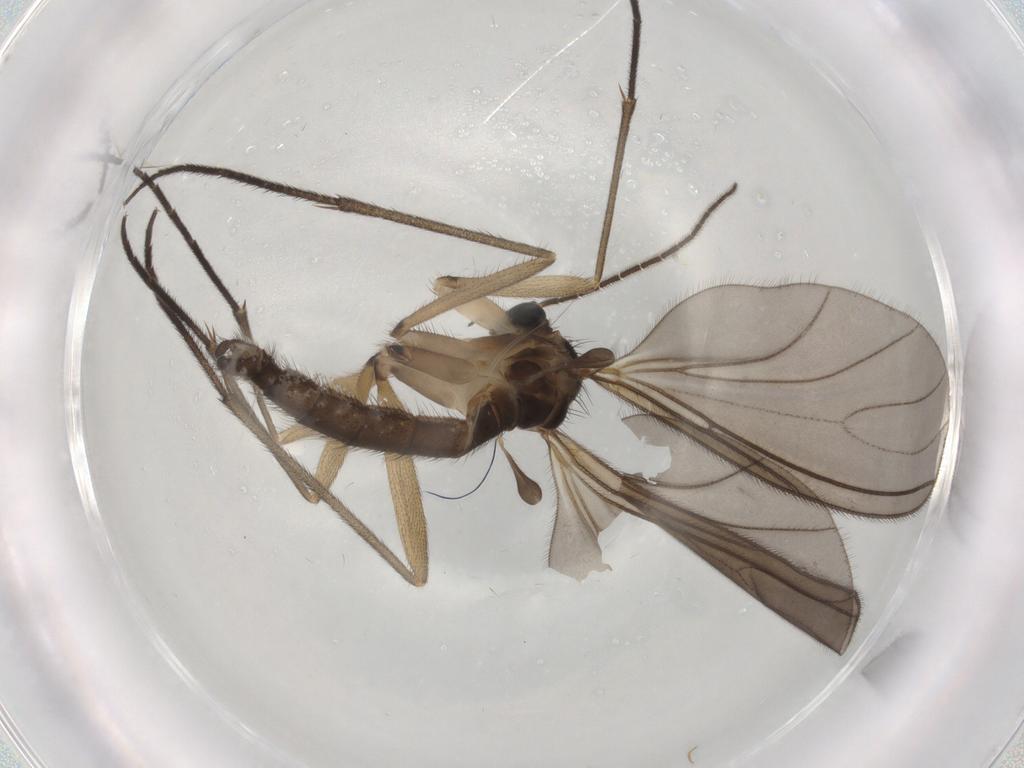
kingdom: Animalia
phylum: Arthropoda
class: Insecta
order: Diptera
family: Sciaridae
